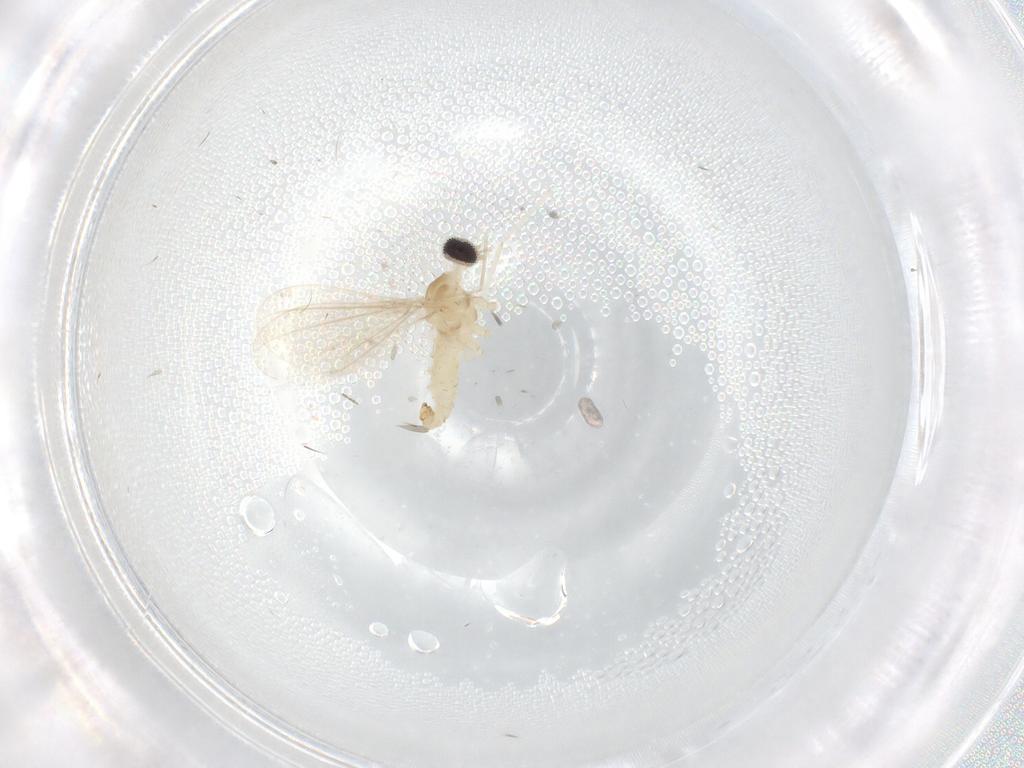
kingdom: Animalia
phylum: Arthropoda
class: Insecta
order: Diptera
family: Cecidomyiidae
